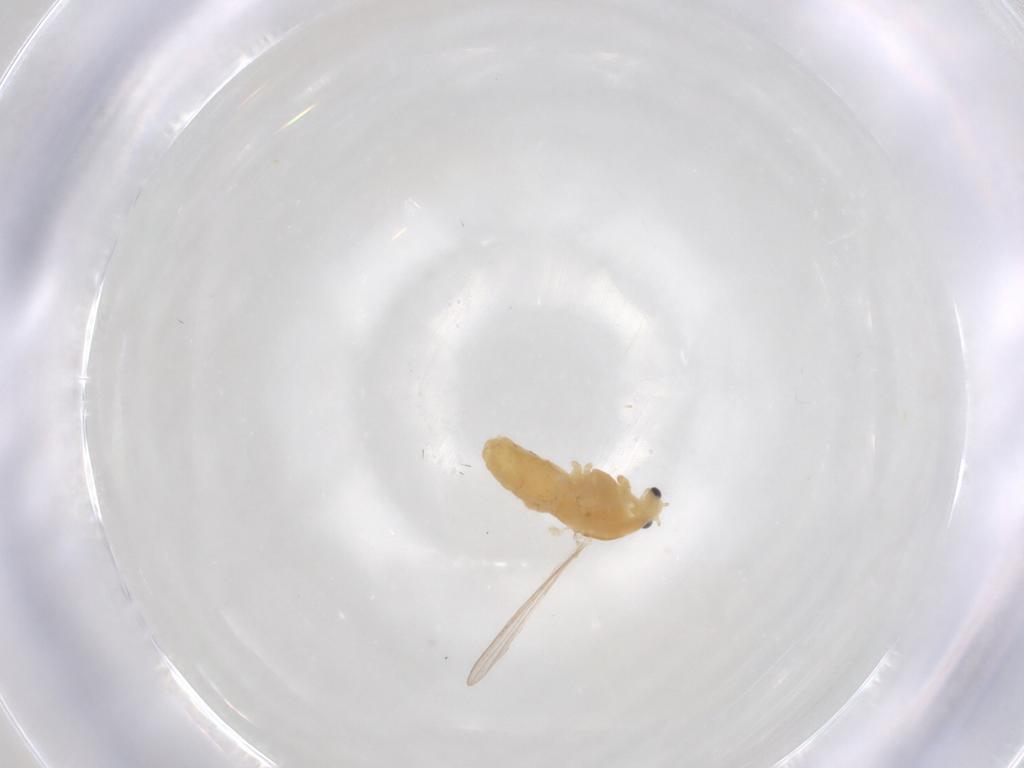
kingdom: Animalia
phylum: Arthropoda
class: Insecta
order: Diptera
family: Chironomidae
